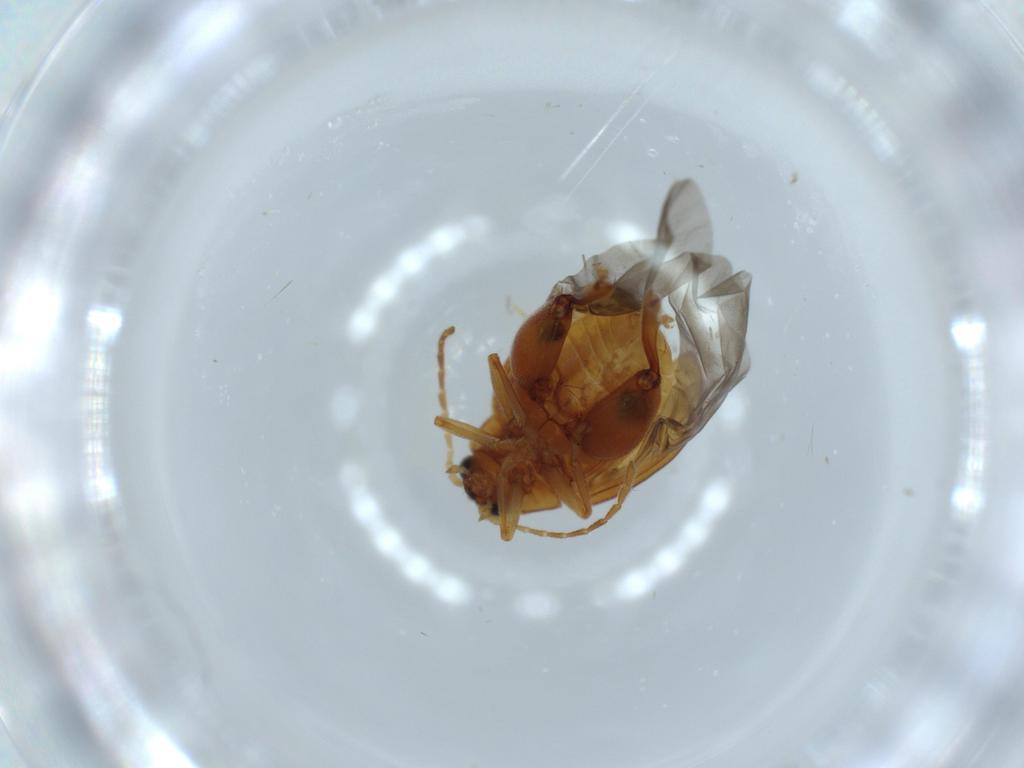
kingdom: Animalia
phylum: Arthropoda
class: Insecta
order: Coleoptera
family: Chrysomelidae
